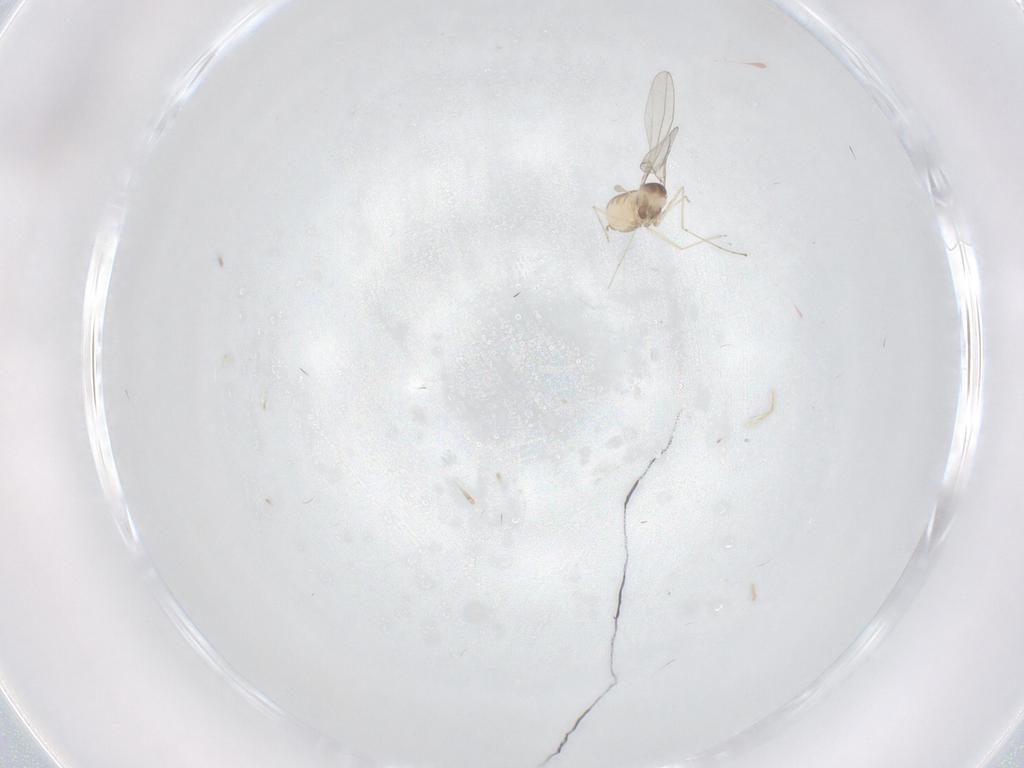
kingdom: Animalia
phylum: Arthropoda
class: Insecta
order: Diptera
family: Cecidomyiidae
